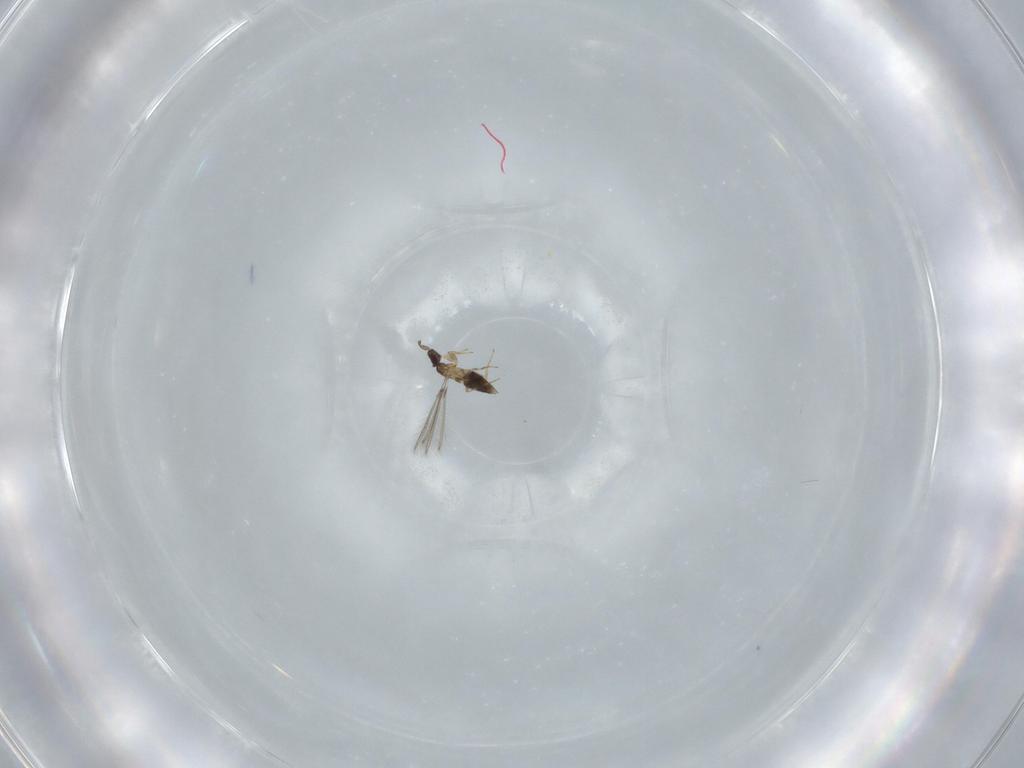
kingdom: Animalia
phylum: Arthropoda
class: Insecta
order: Hymenoptera
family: Mymaridae
